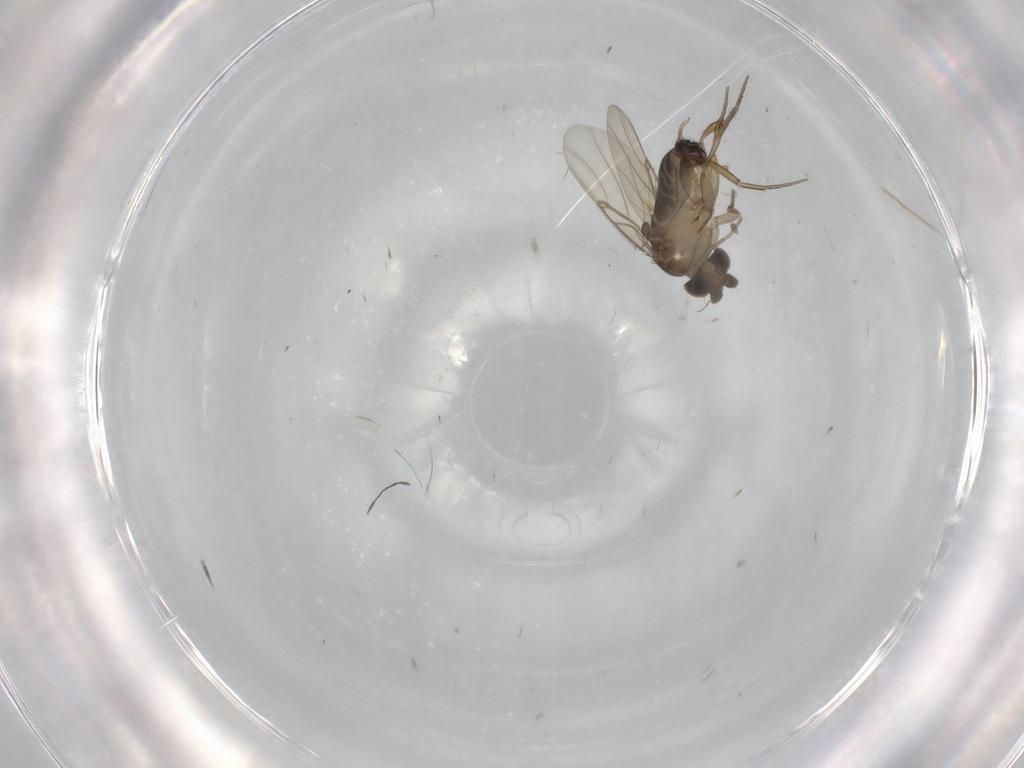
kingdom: Animalia
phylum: Arthropoda
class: Insecta
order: Diptera
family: Phoridae
